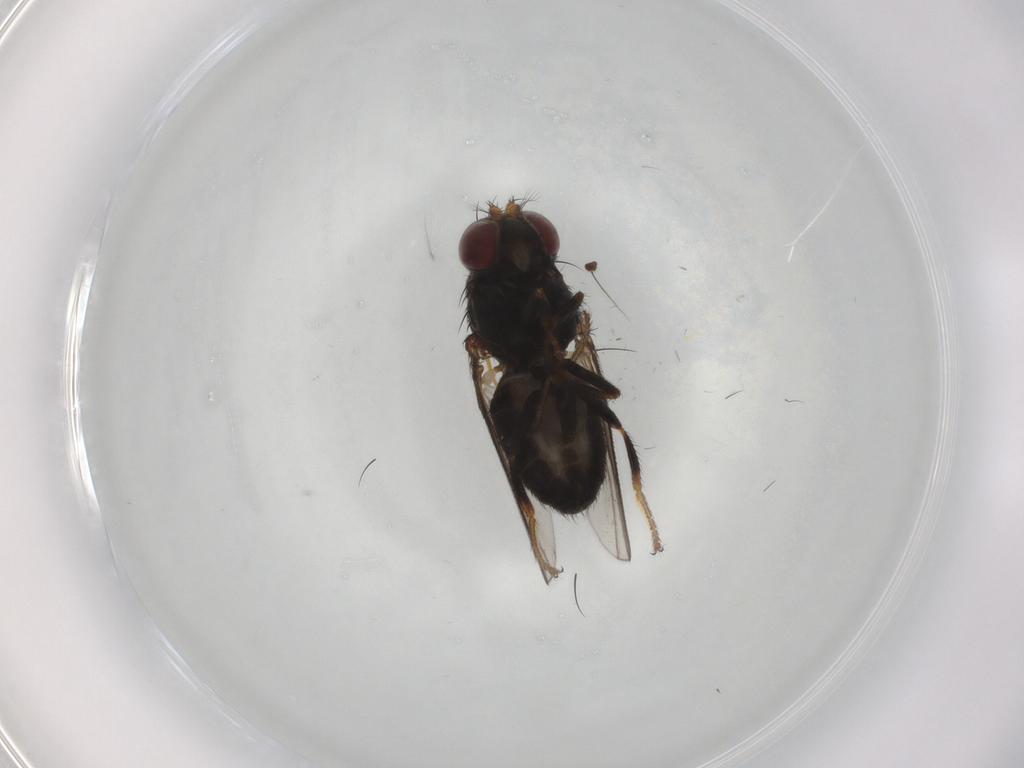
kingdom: Animalia
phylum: Arthropoda
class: Insecta
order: Diptera
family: Ephydridae
